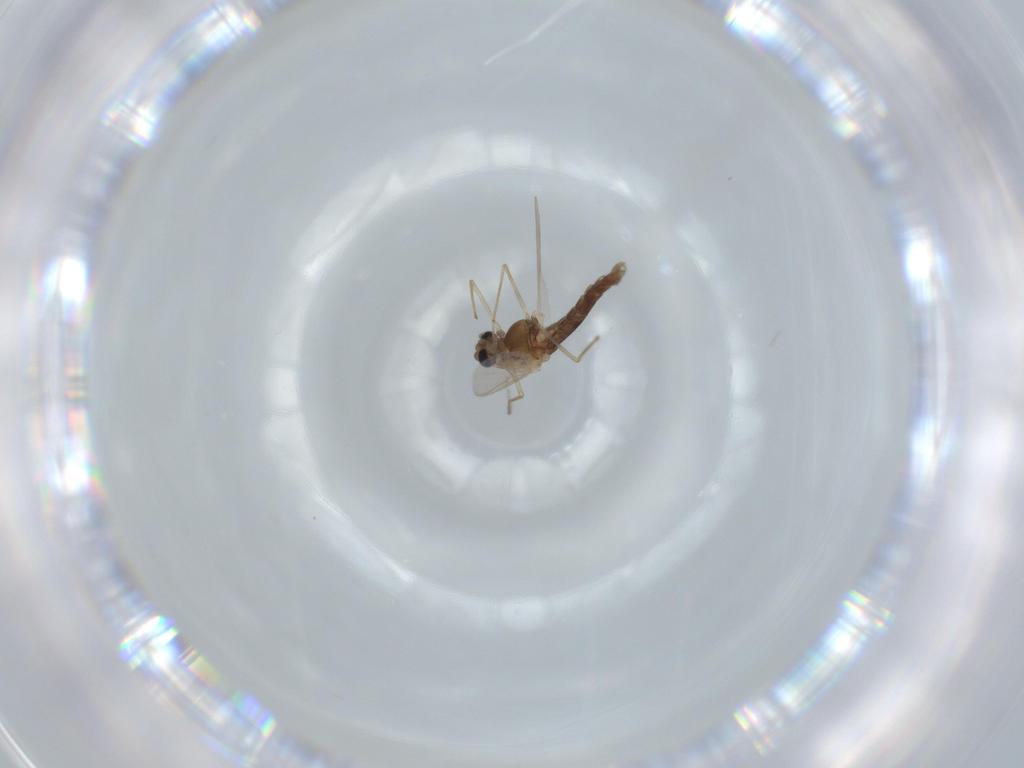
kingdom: Animalia
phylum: Arthropoda
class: Insecta
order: Diptera
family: Chironomidae
